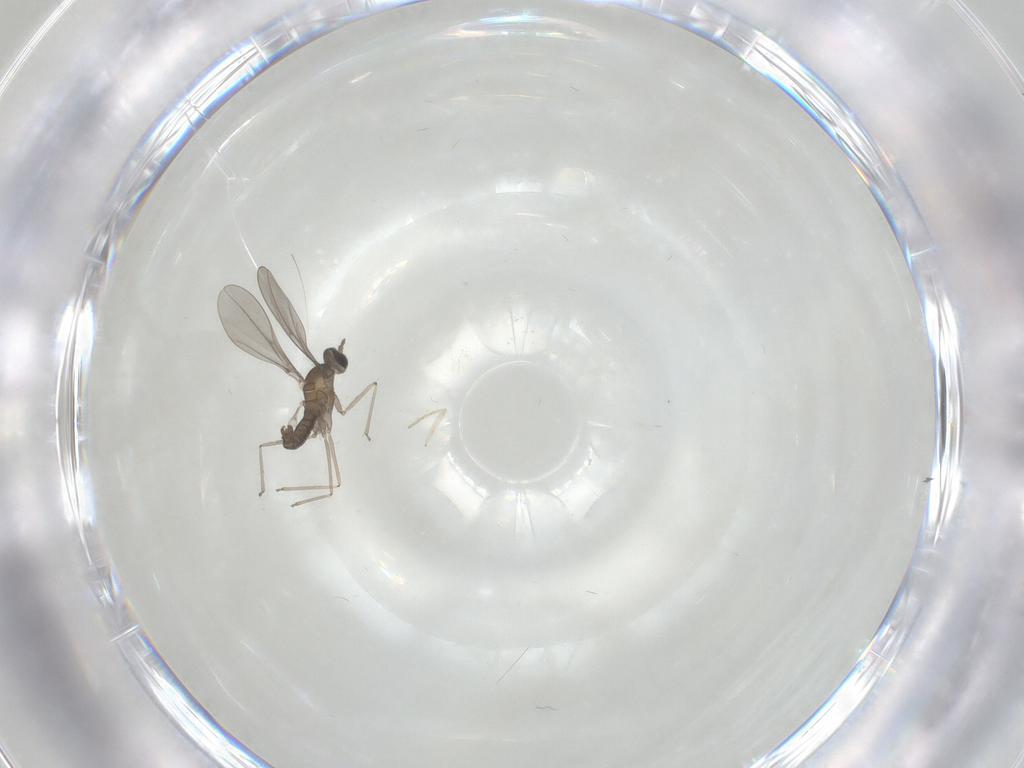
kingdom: Animalia
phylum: Arthropoda
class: Insecta
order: Diptera
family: Cecidomyiidae
